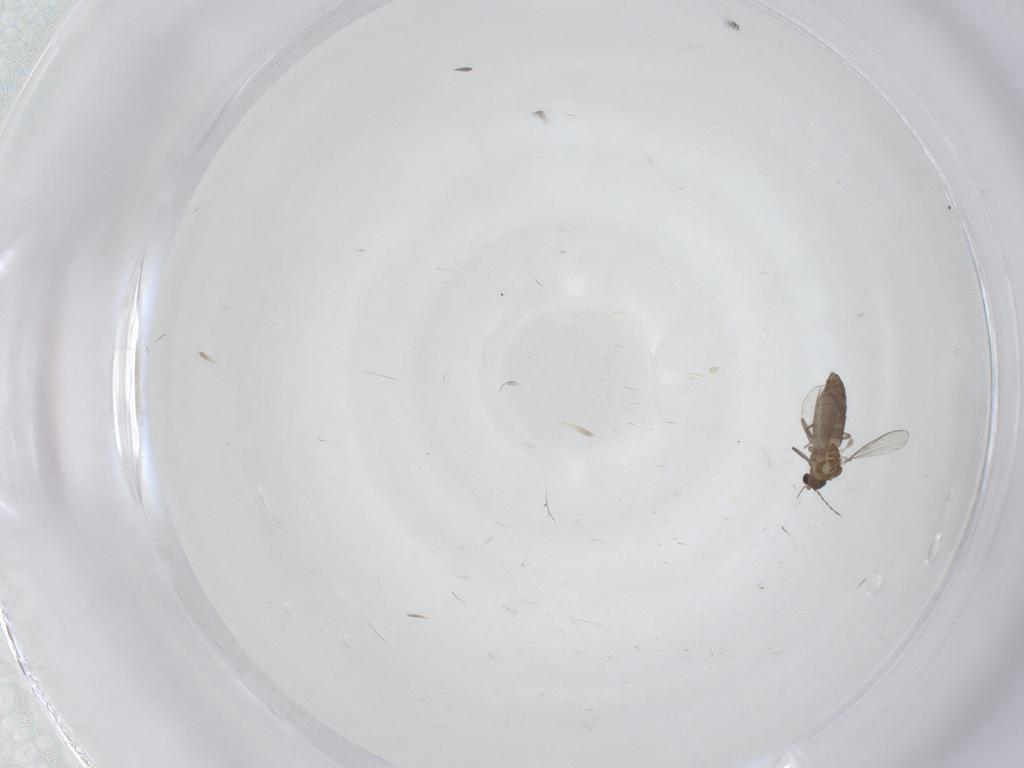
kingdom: Animalia
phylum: Arthropoda
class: Insecta
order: Diptera
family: Chironomidae
